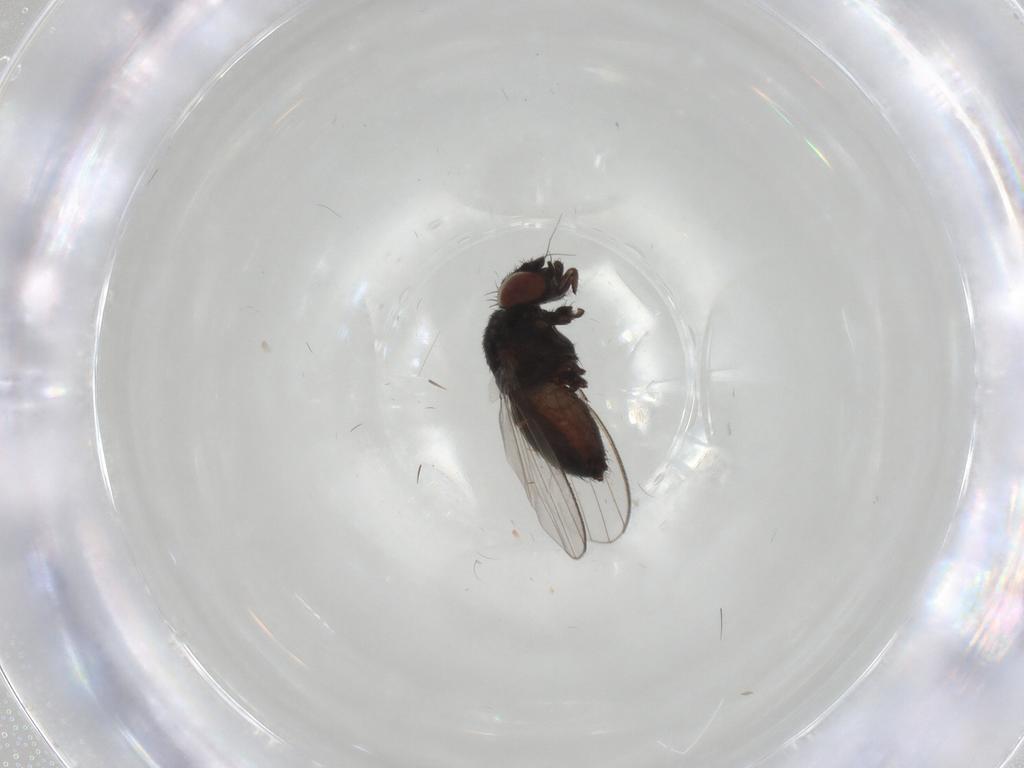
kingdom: Animalia
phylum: Arthropoda
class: Insecta
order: Diptera
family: Milichiidae
